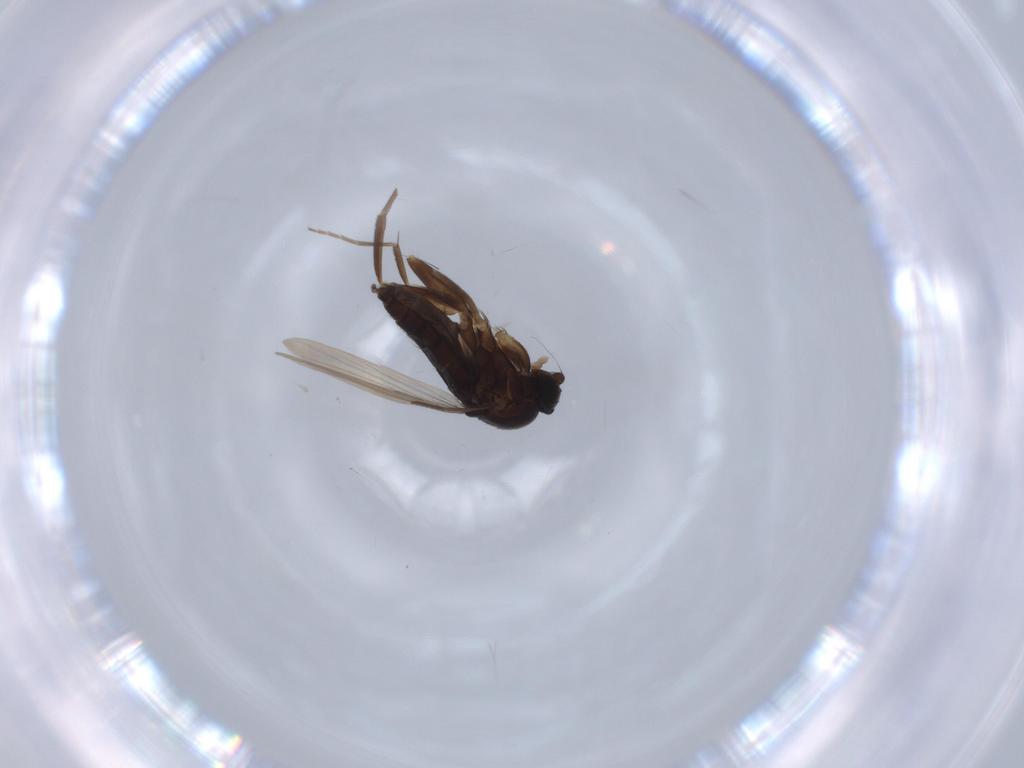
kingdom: Animalia
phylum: Arthropoda
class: Insecta
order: Diptera
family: Phoridae
